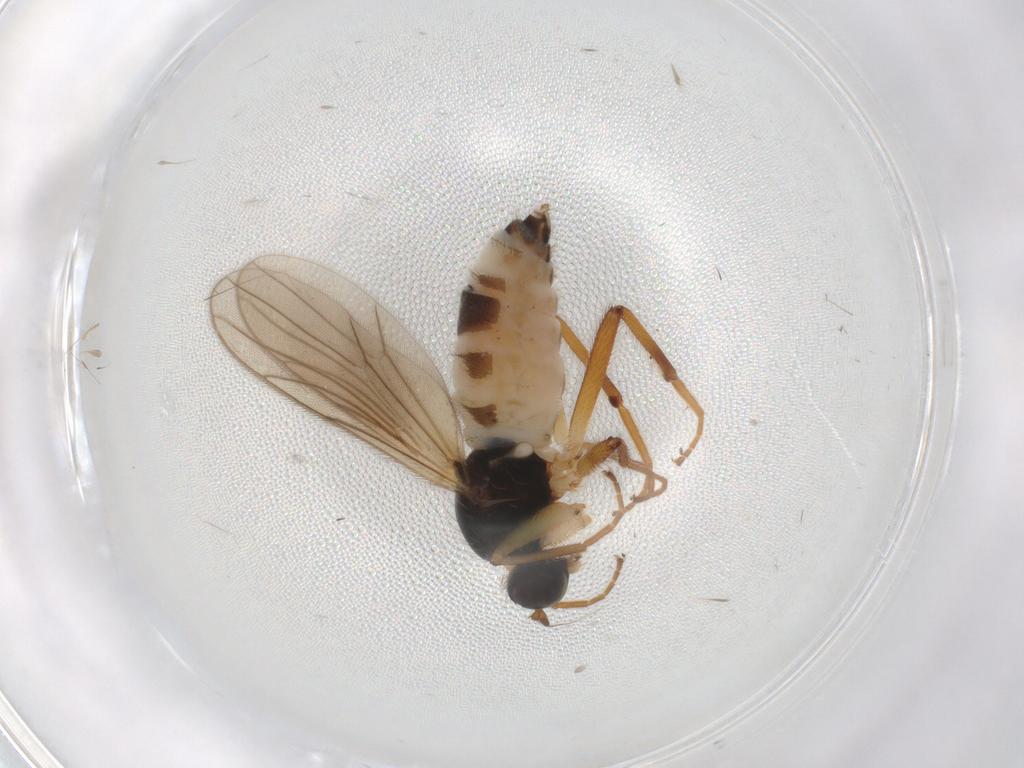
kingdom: Animalia
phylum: Arthropoda
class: Insecta
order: Diptera
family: Hybotidae
